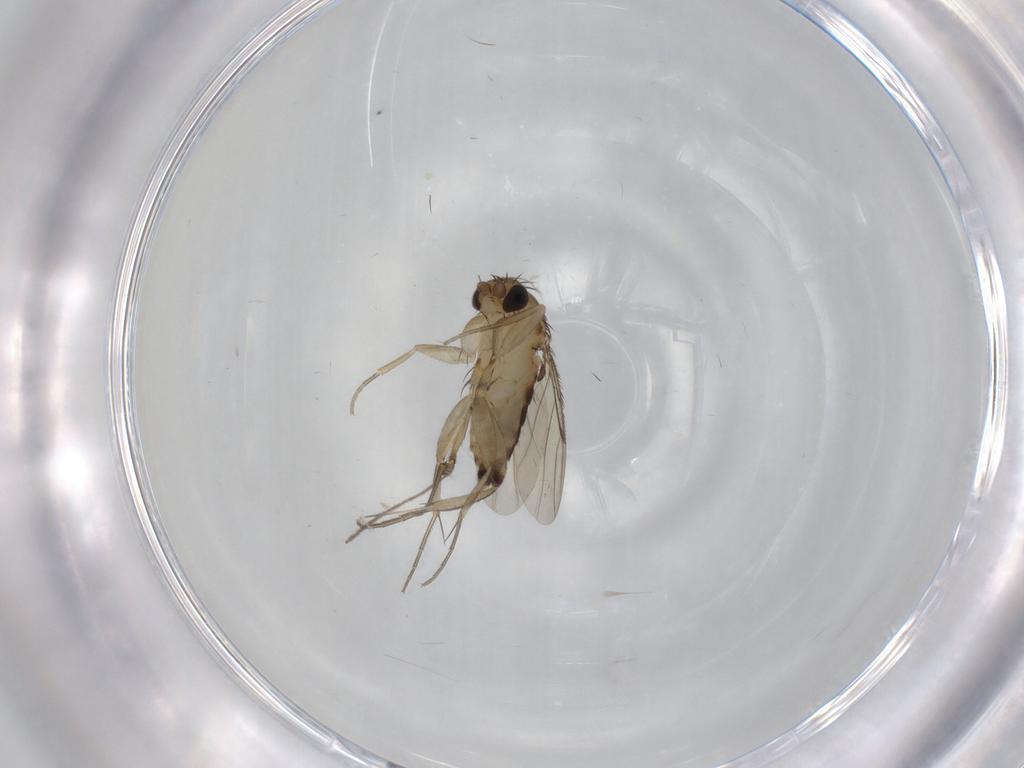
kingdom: Animalia
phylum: Arthropoda
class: Insecta
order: Diptera
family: Phoridae
